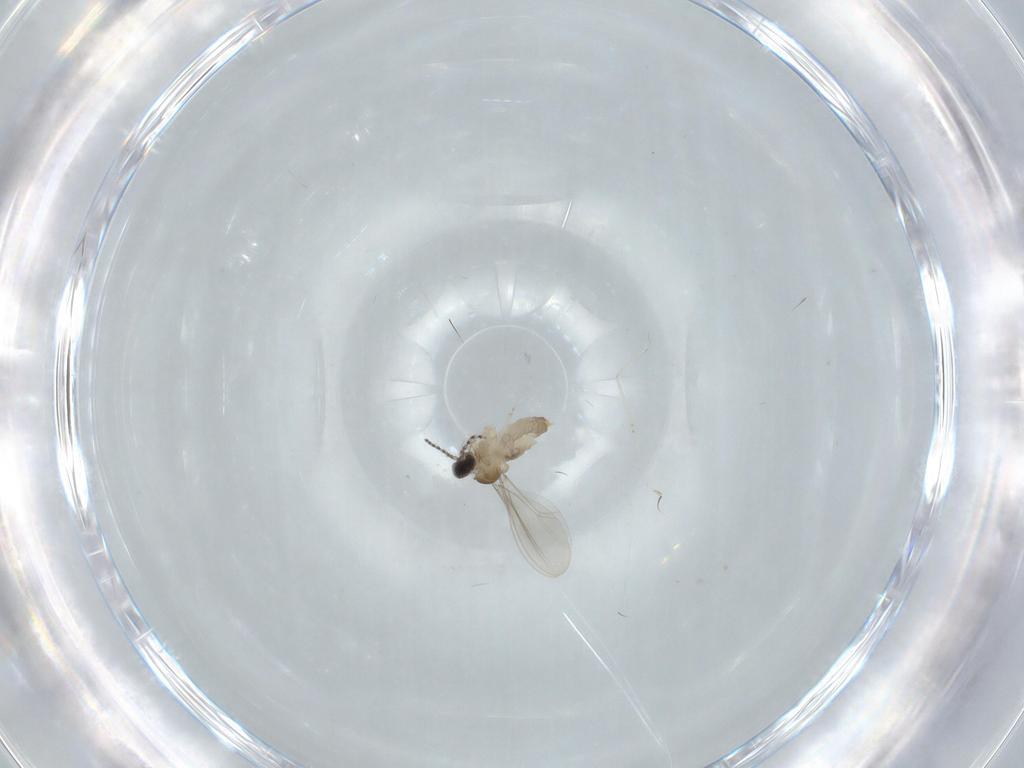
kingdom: Animalia
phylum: Arthropoda
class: Insecta
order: Diptera
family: Cecidomyiidae
